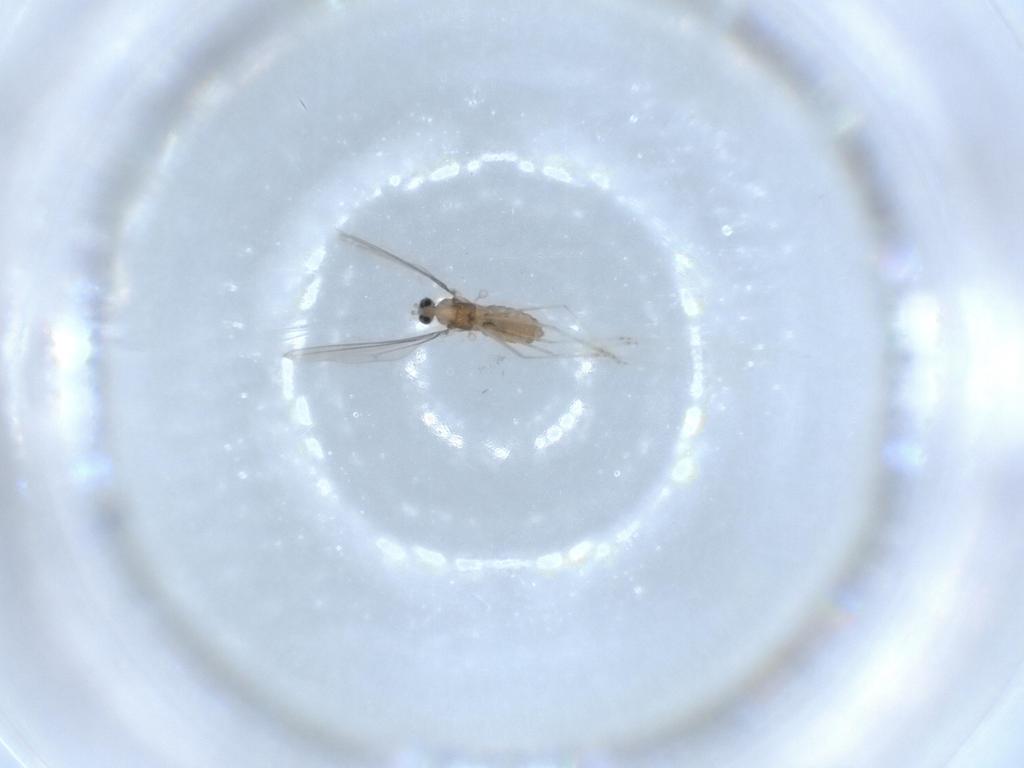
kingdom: Animalia
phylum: Arthropoda
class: Insecta
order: Diptera
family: Cecidomyiidae
